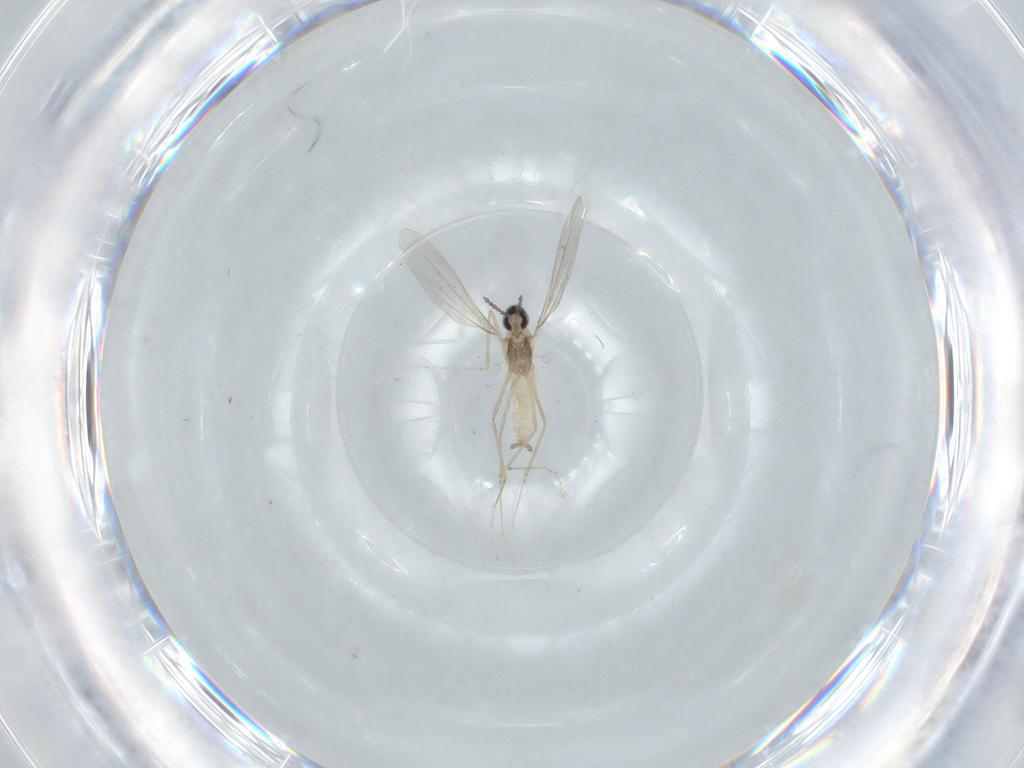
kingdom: Animalia
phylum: Arthropoda
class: Insecta
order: Diptera
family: Cecidomyiidae
